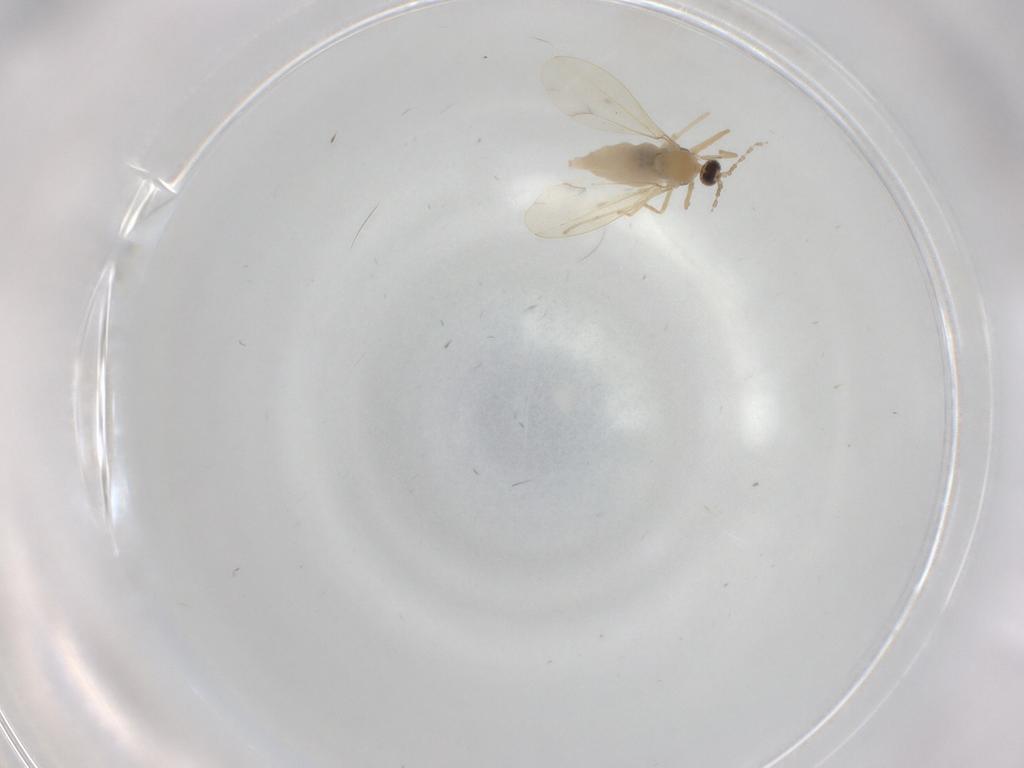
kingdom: Animalia
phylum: Arthropoda
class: Insecta
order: Diptera
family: Cecidomyiidae
